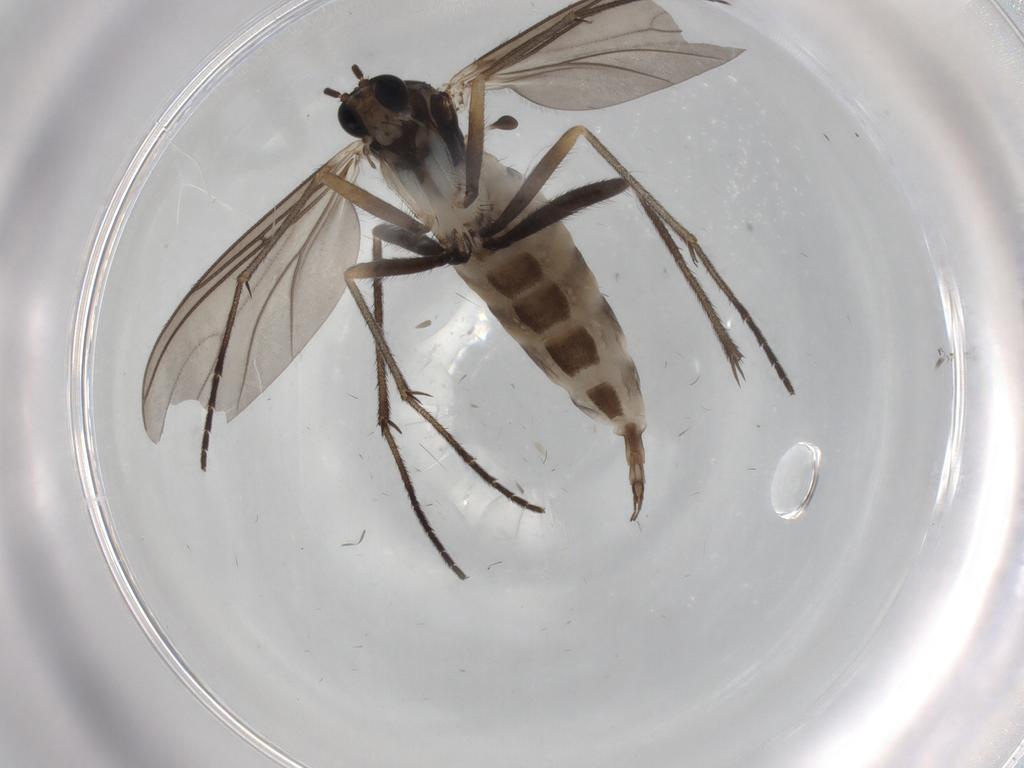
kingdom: Animalia
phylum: Arthropoda
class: Insecta
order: Diptera
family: Sciaridae
